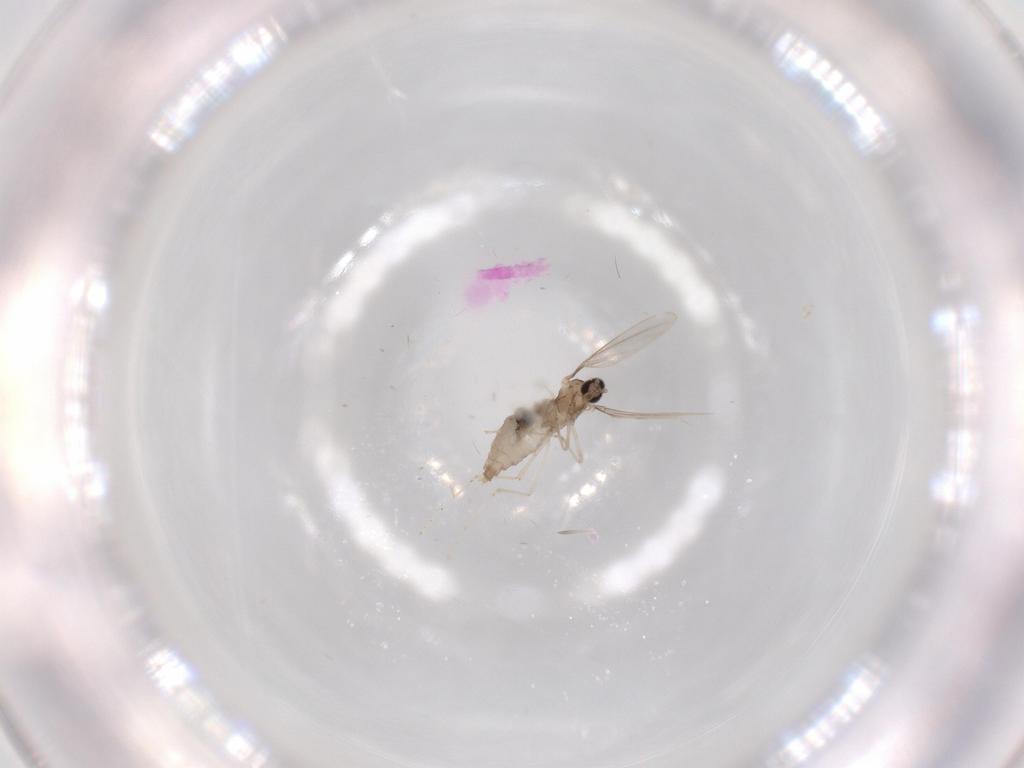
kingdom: Animalia
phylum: Arthropoda
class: Insecta
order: Diptera
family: Cecidomyiidae
